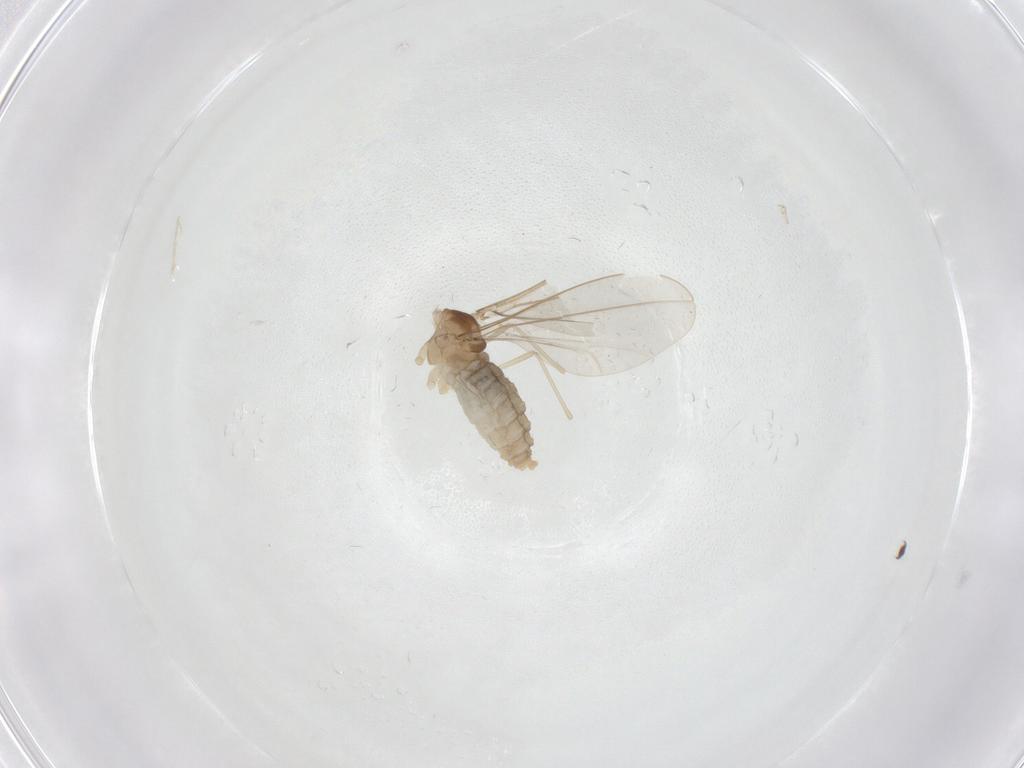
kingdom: Animalia
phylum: Arthropoda
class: Insecta
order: Diptera
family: Cecidomyiidae
